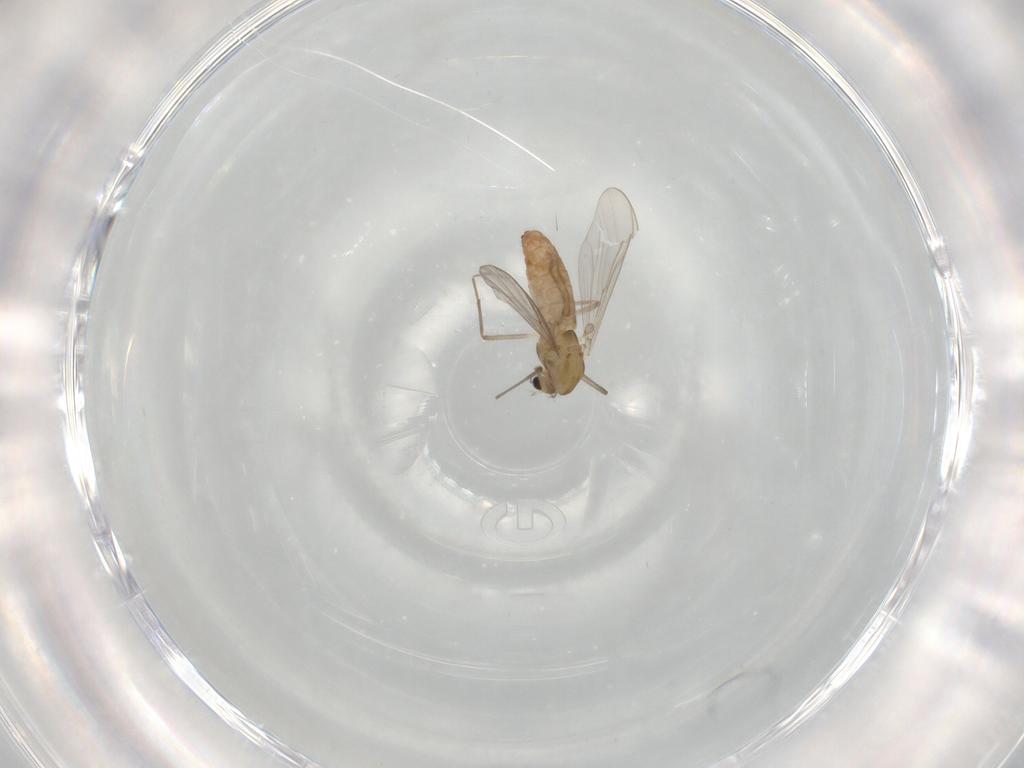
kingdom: Animalia
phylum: Arthropoda
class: Insecta
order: Diptera
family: Chironomidae
